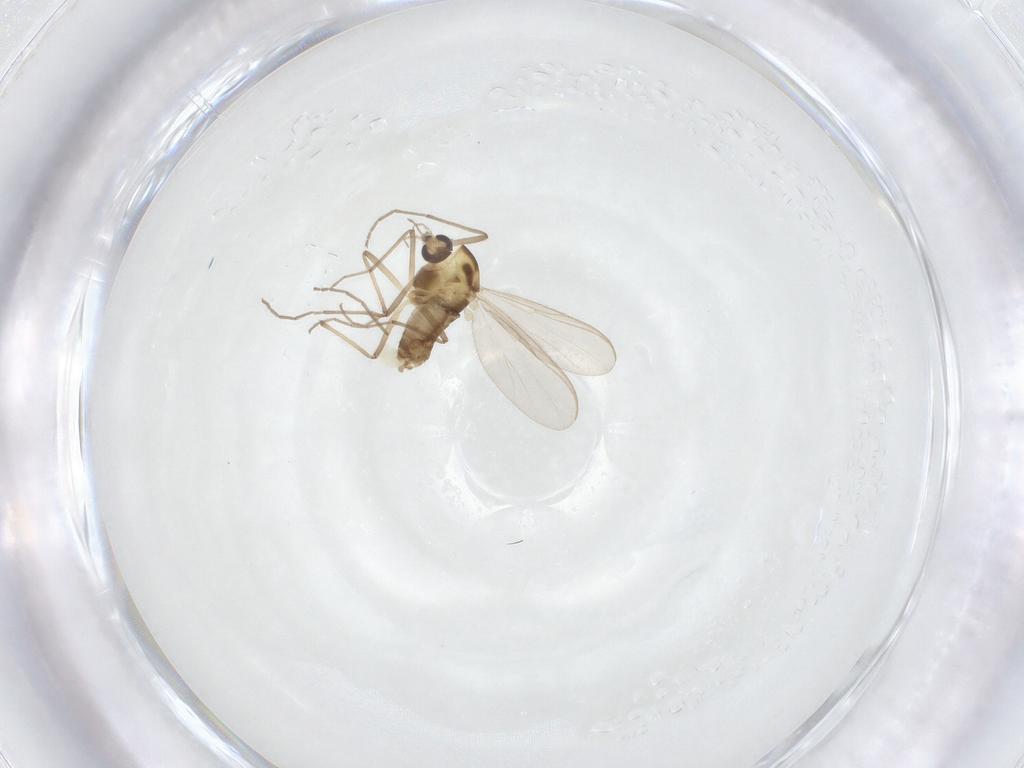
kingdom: Animalia
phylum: Arthropoda
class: Insecta
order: Diptera
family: Chironomidae
